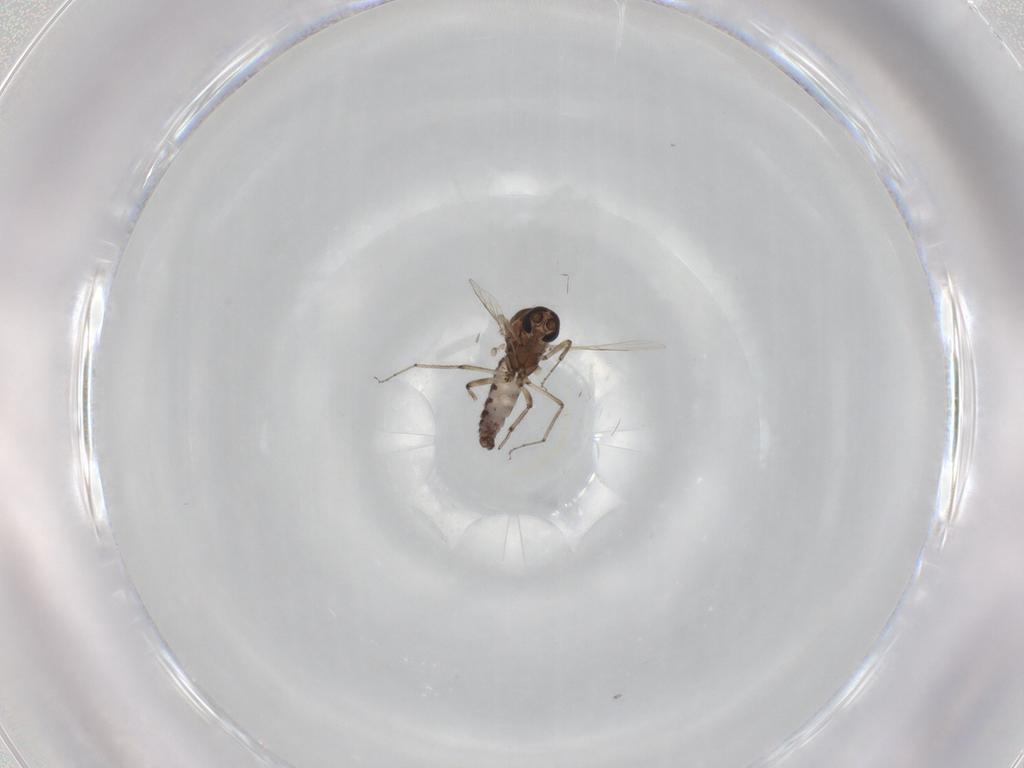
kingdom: Animalia
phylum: Arthropoda
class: Insecta
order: Diptera
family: Ceratopogonidae
